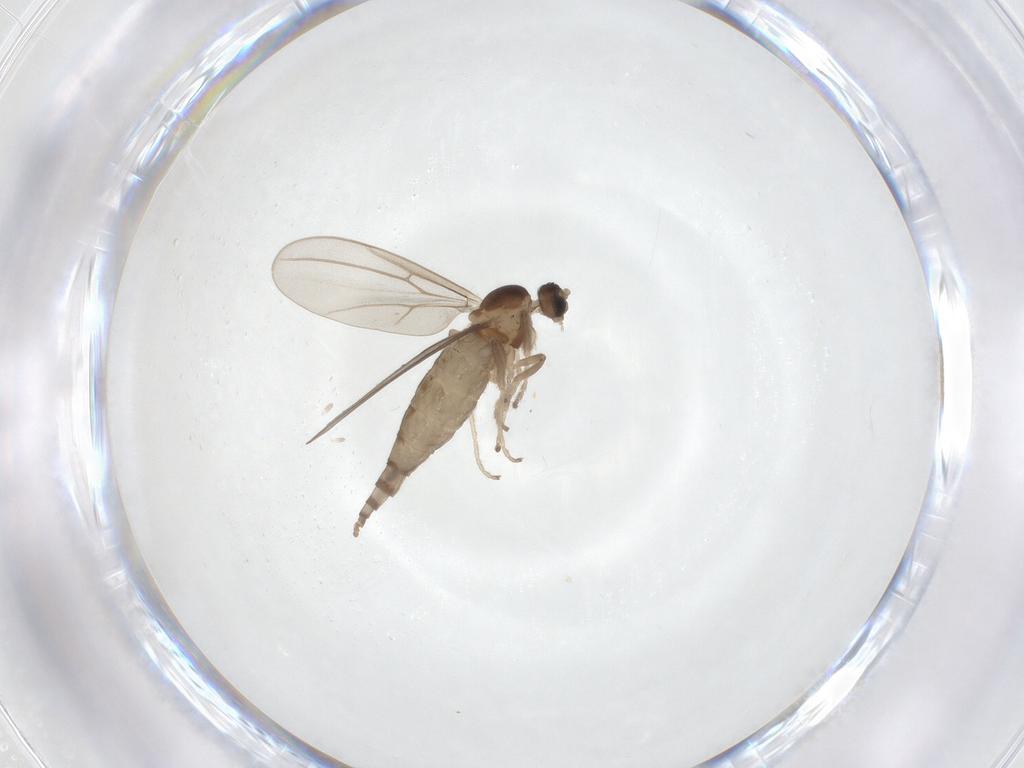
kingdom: Animalia
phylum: Arthropoda
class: Insecta
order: Diptera
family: Cecidomyiidae
